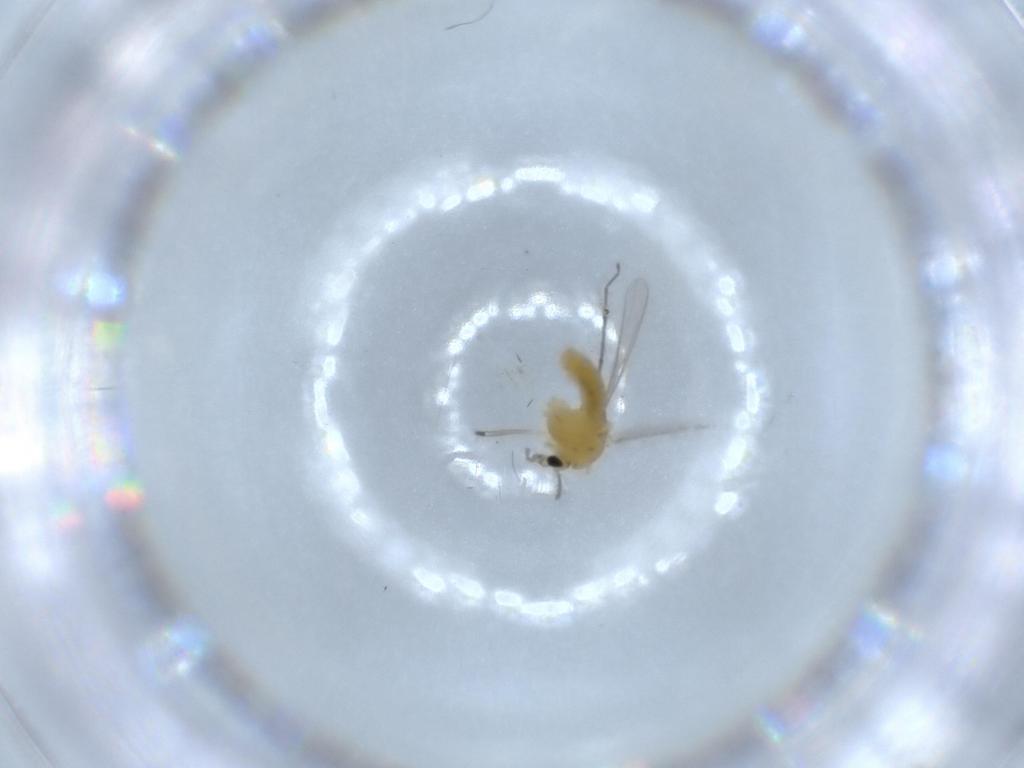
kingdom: Animalia
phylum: Arthropoda
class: Insecta
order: Diptera
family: Chironomidae
